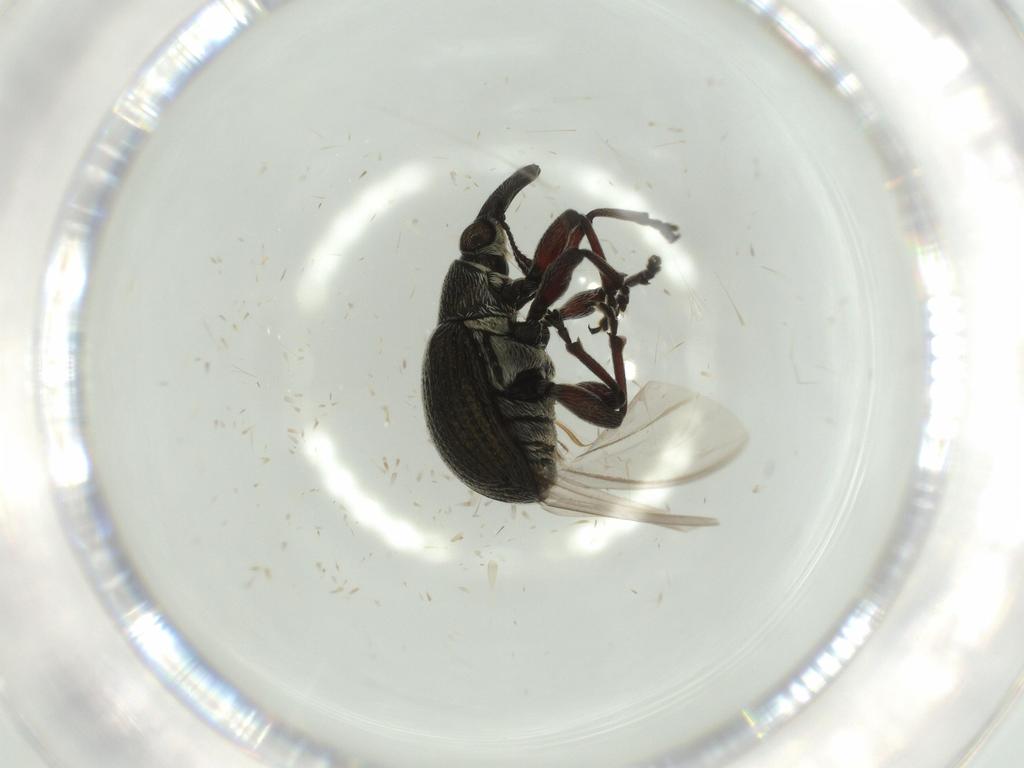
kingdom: Animalia
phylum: Arthropoda
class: Insecta
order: Coleoptera
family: Brentidae
